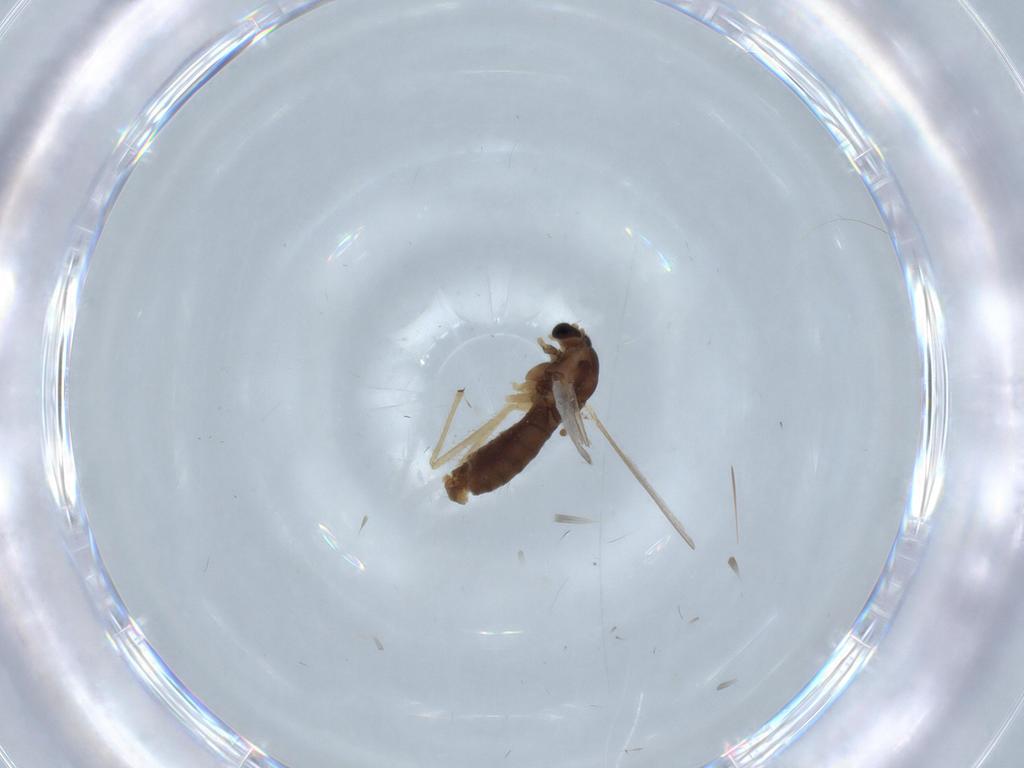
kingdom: Animalia
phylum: Arthropoda
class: Insecta
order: Diptera
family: Chironomidae
